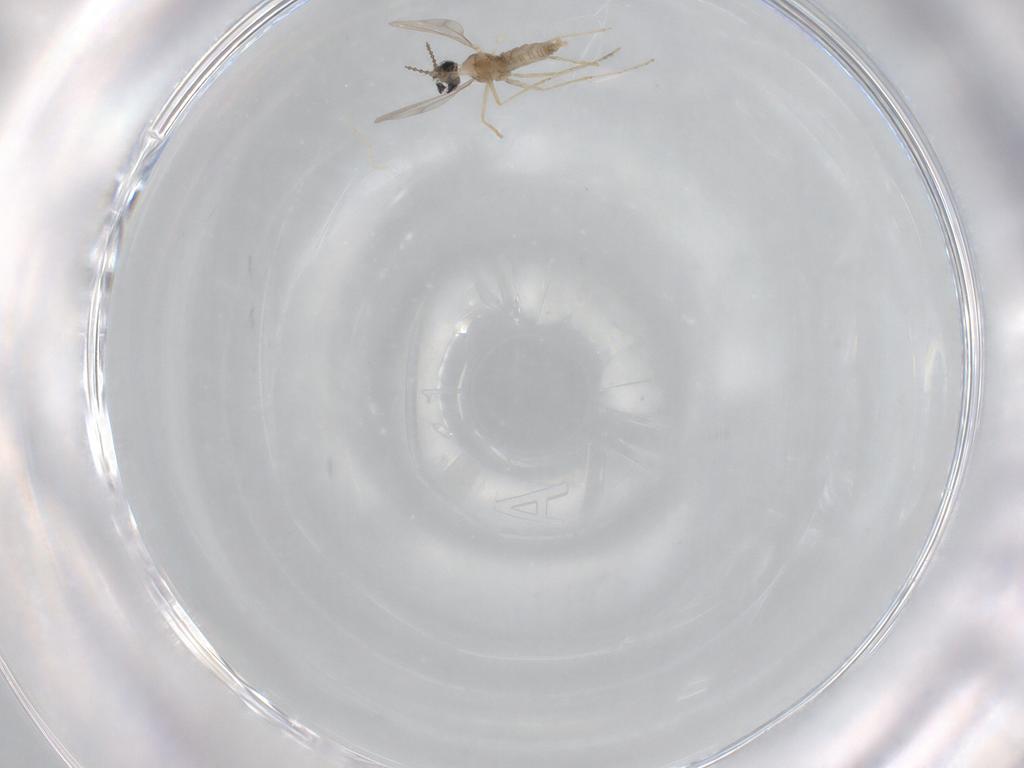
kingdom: Animalia
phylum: Arthropoda
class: Insecta
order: Diptera
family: Cecidomyiidae
